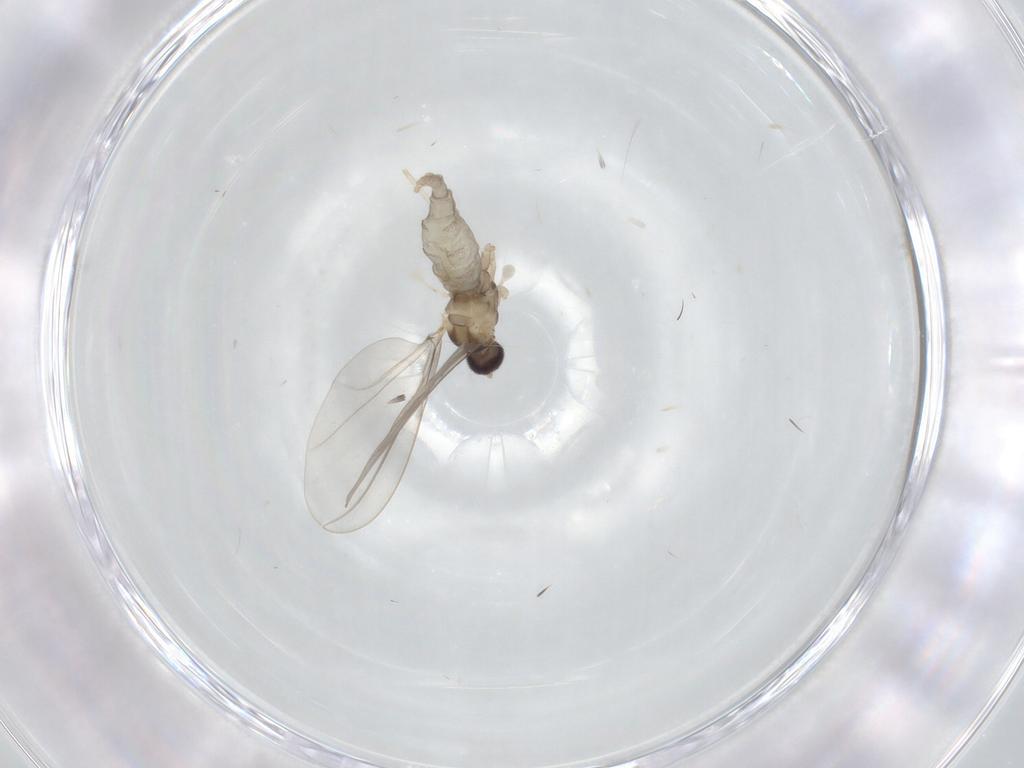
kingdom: Animalia
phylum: Arthropoda
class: Insecta
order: Diptera
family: Cecidomyiidae
